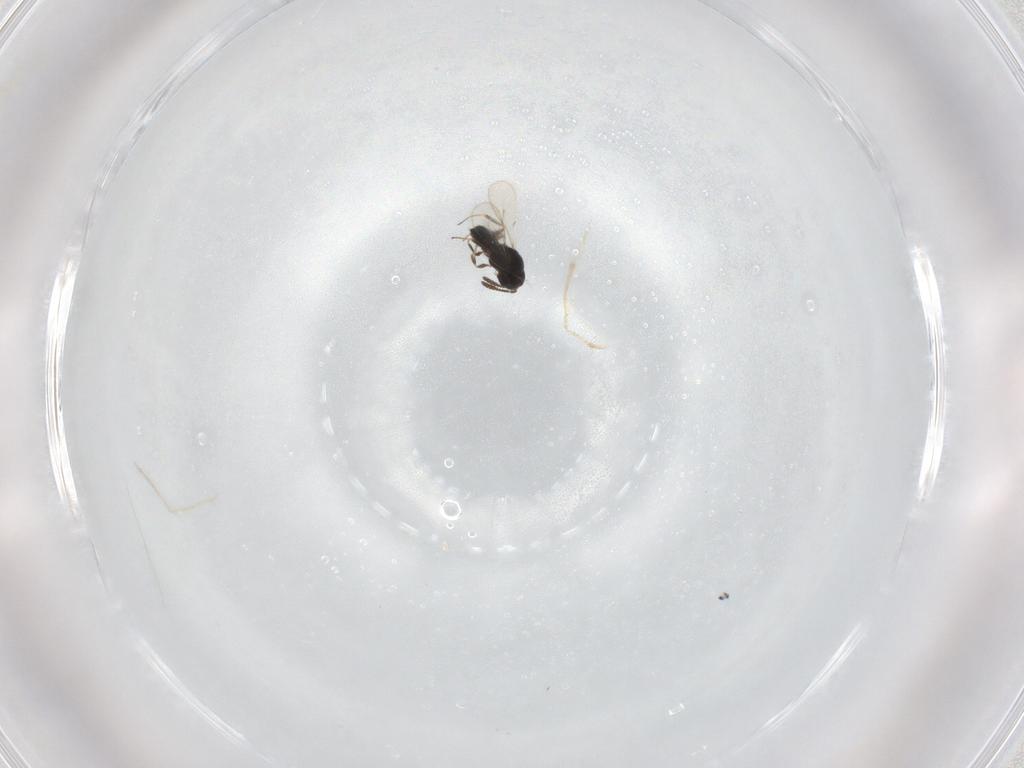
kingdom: Animalia
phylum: Arthropoda
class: Insecta
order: Hymenoptera
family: Scelionidae
